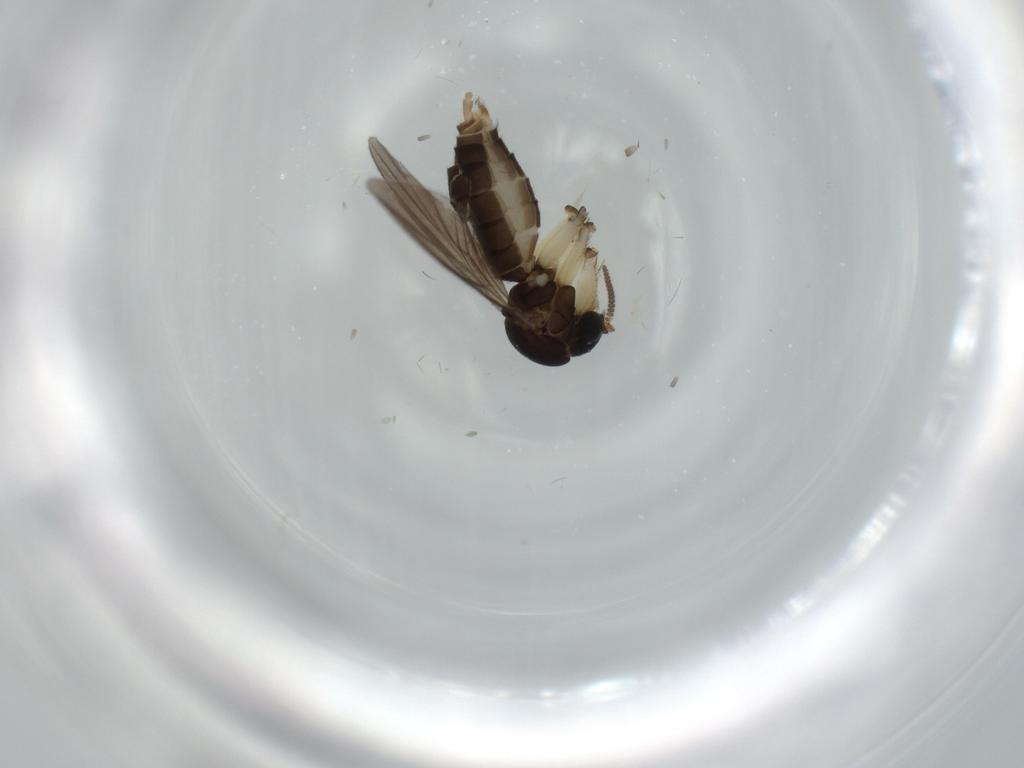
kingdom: Animalia
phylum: Arthropoda
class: Insecta
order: Diptera
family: Mycetophilidae
